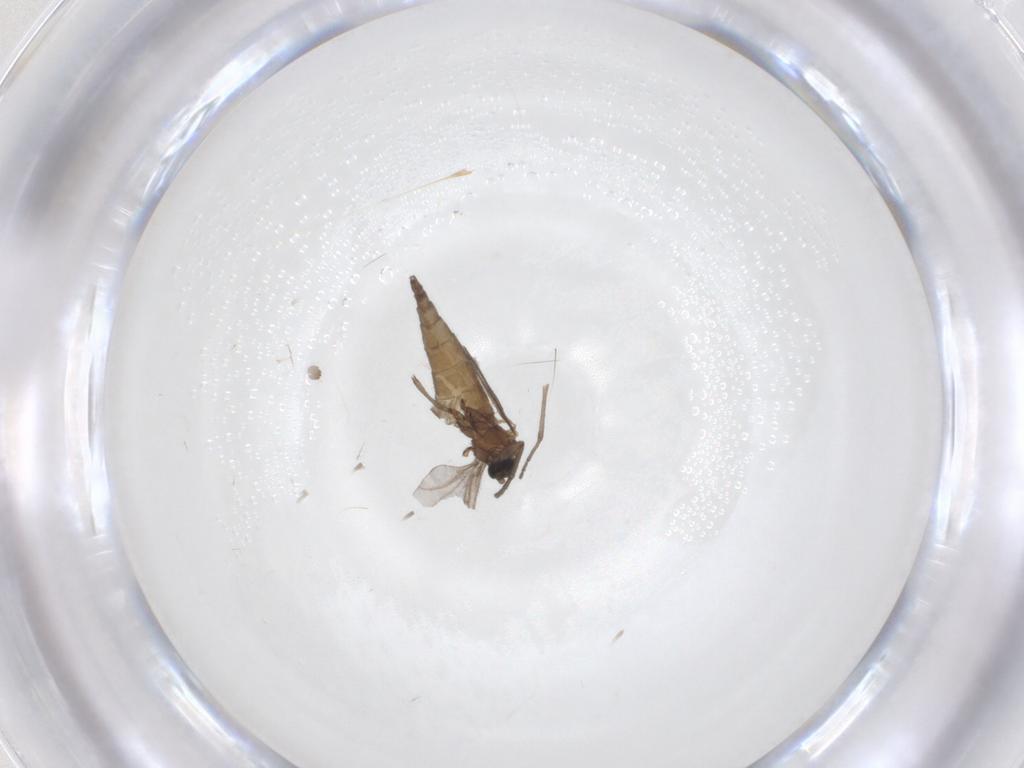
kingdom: Animalia
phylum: Arthropoda
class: Insecta
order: Diptera
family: Sciaridae
